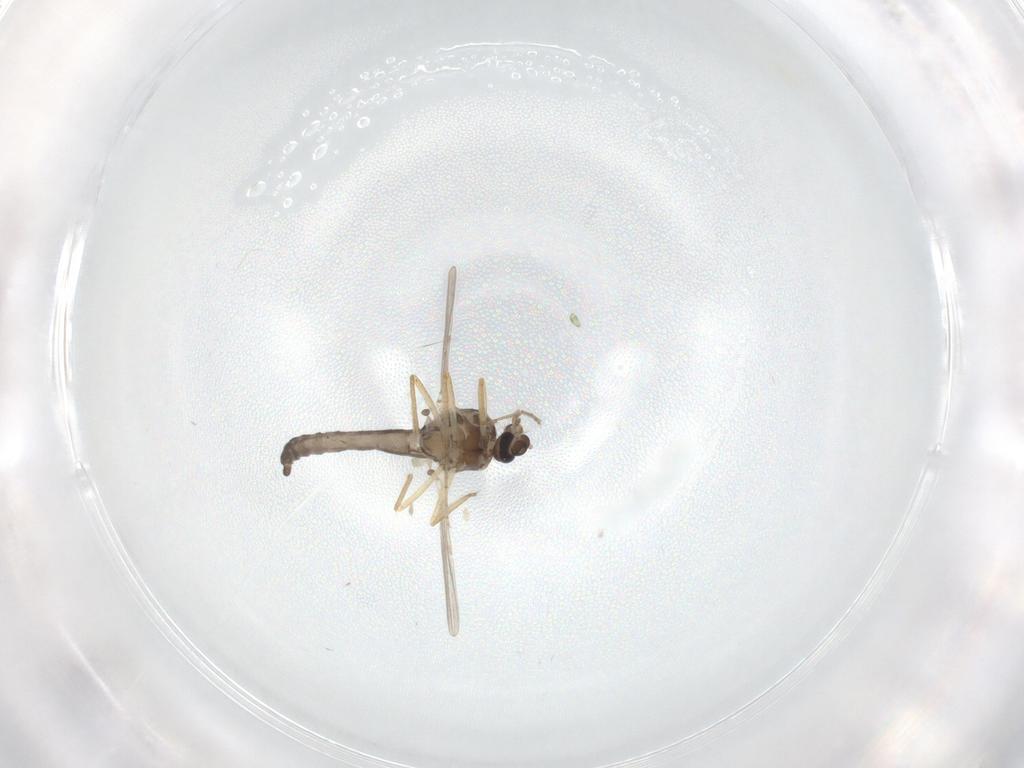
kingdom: Animalia
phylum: Arthropoda
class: Insecta
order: Diptera
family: Ceratopogonidae
